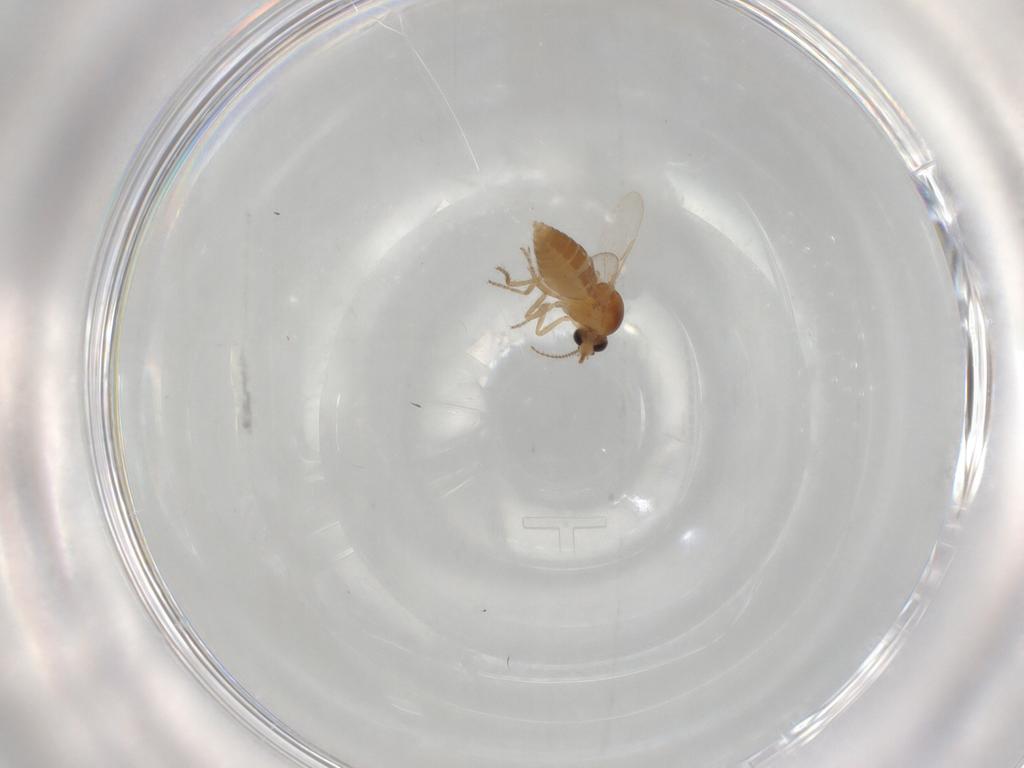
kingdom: Animalia
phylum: Arthropoda
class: Insecta
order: Diptera
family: Ceratopogonidae
